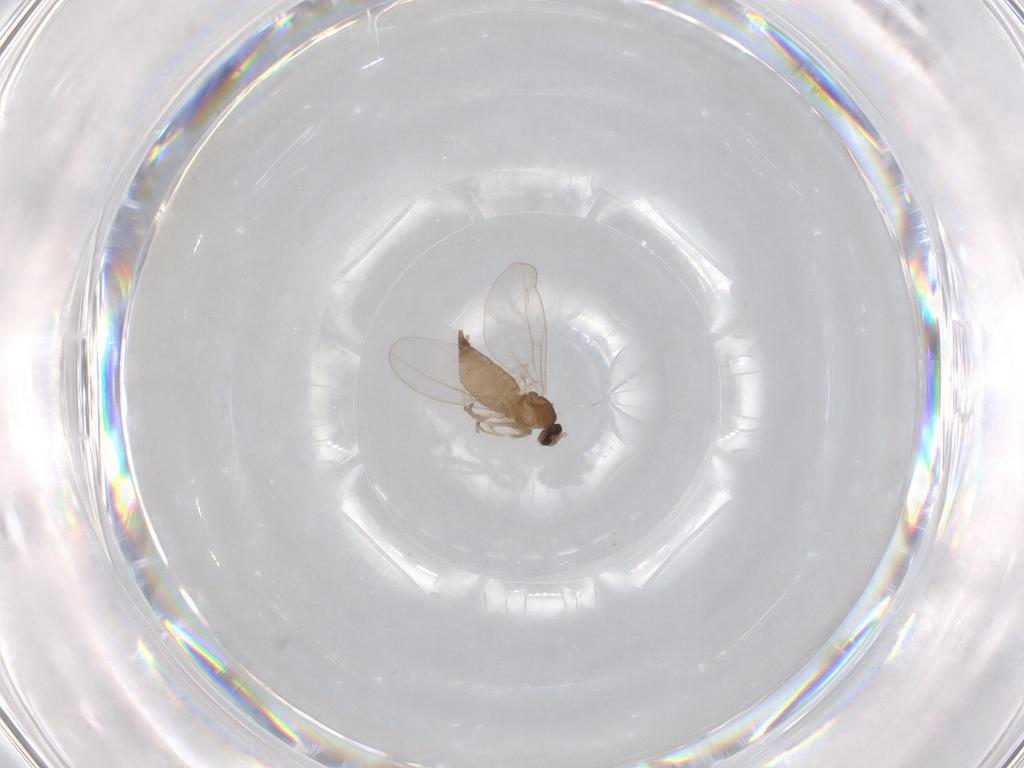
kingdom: Animalia
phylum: Arthropoda
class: Insecta
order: Diptera
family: Cecidomyiidae
